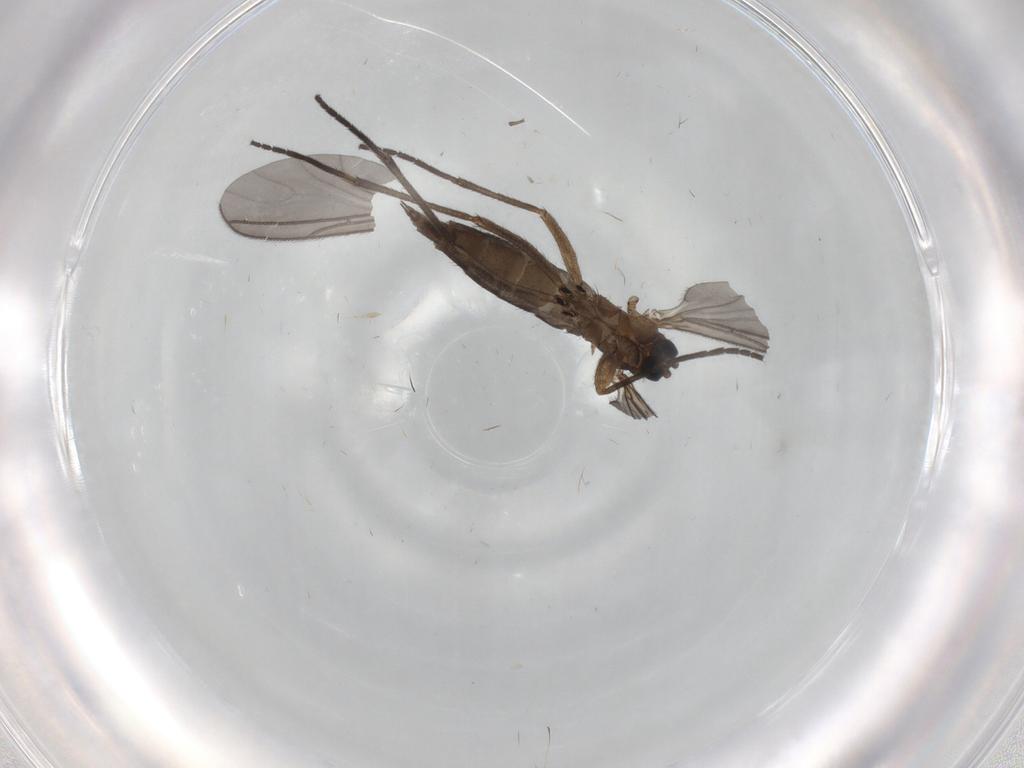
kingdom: Animalia
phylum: Arthropoda
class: Insecta
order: Diptera
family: Sciaridae
